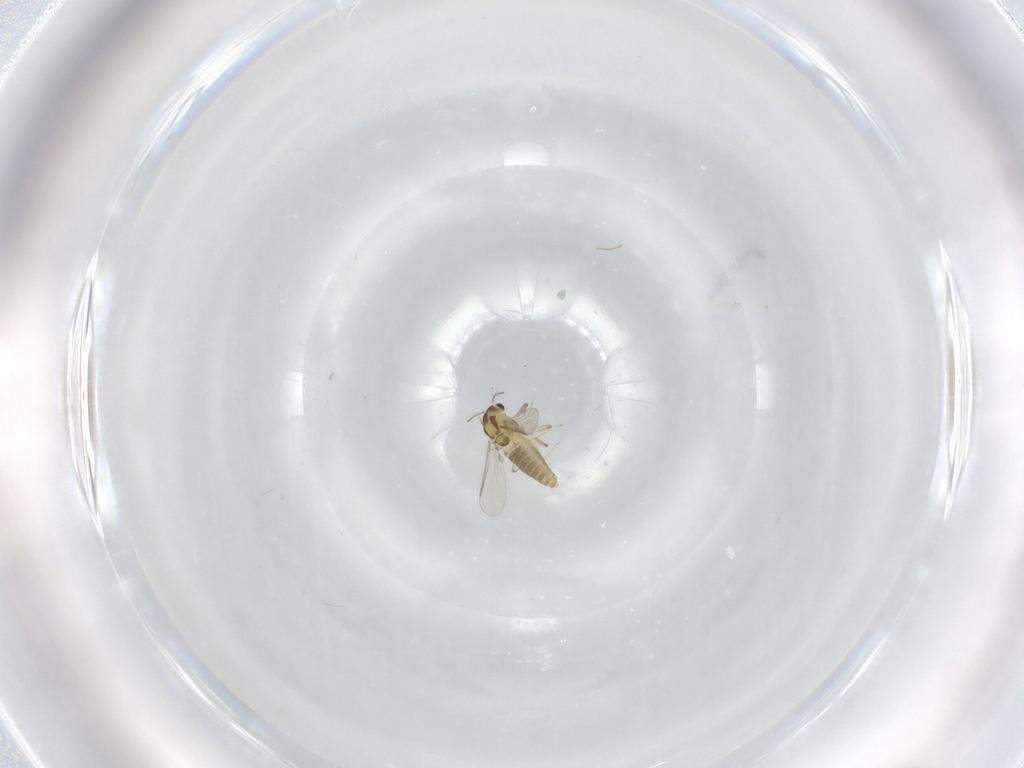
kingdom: Animalia
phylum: Arthropoda
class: Insecta
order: Diptera
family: Chironomidae
